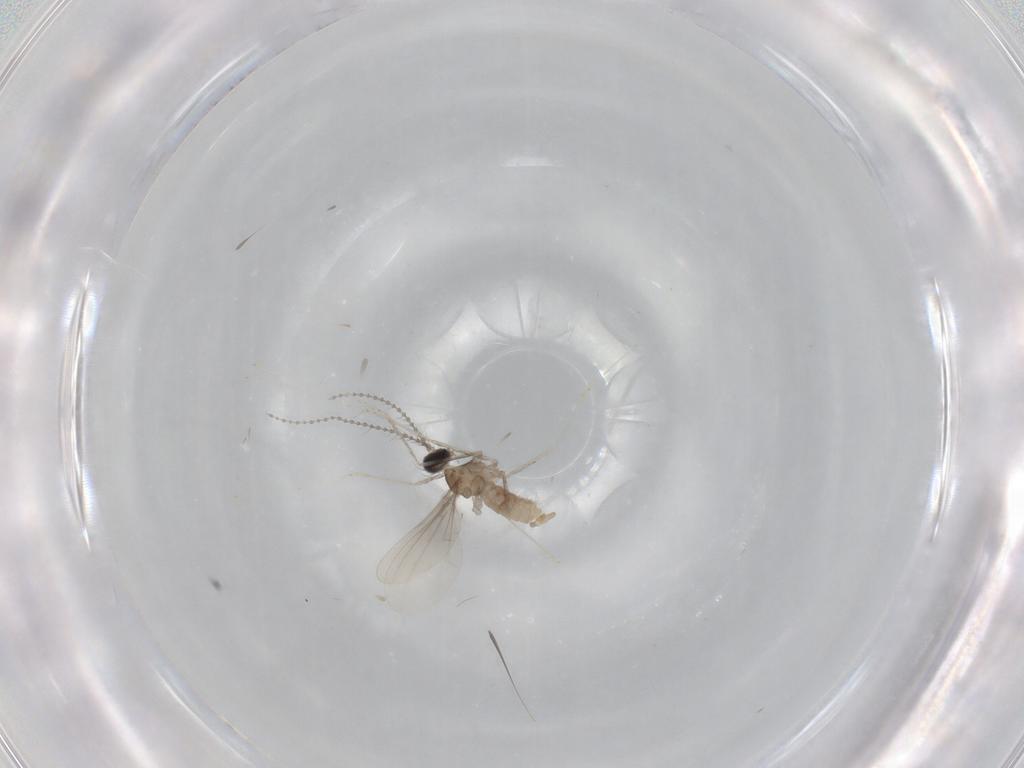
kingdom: Animalia
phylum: Arthropoda
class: Insecta
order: Diptera
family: Cecidomyiidae
